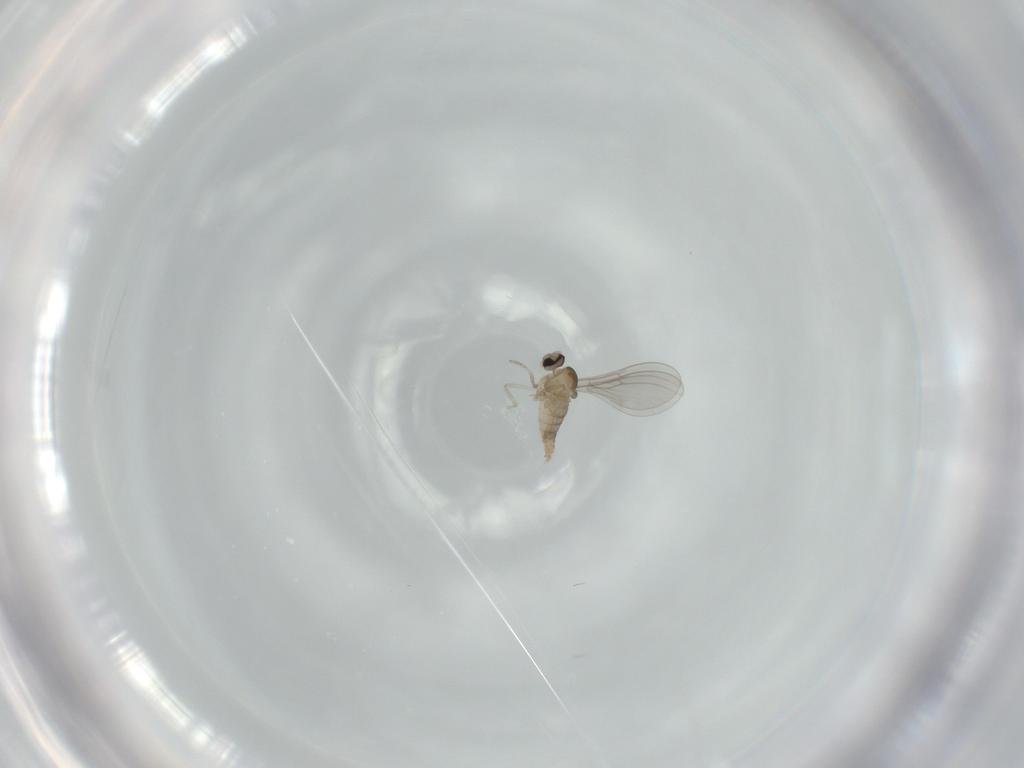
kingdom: Animalia
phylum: Arthropoda
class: Insecta
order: Diptera
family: Cecidomyiidae
